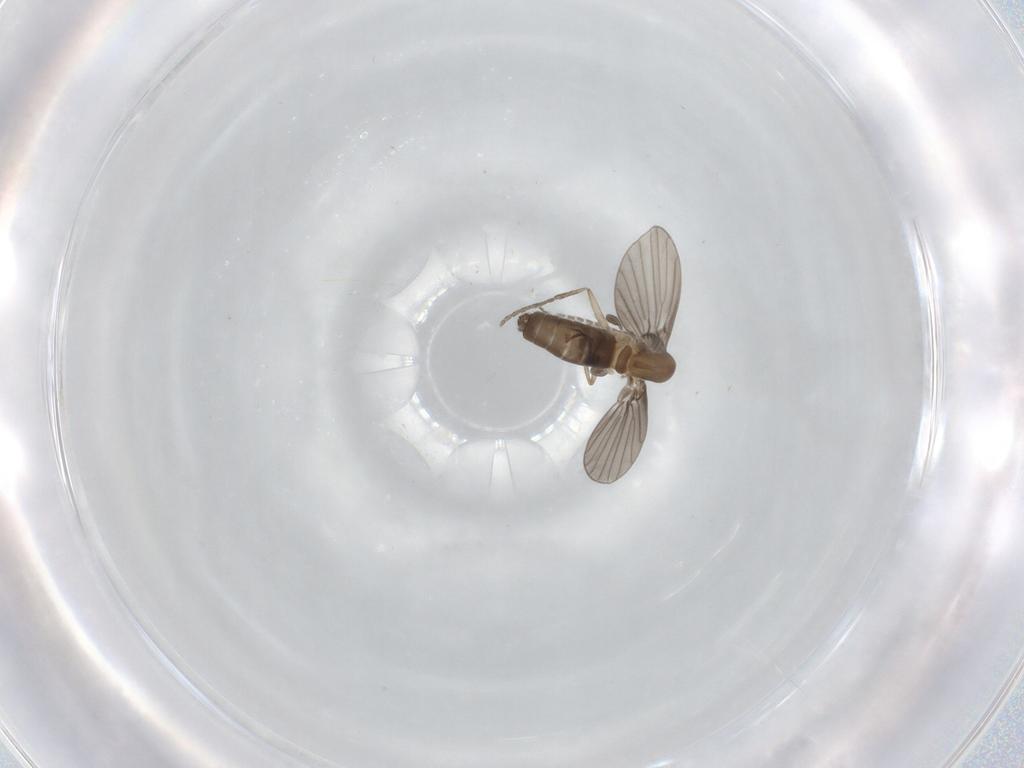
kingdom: Animalia
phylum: Arthropoda
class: Insecta
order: Diptera
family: Psychodidae
